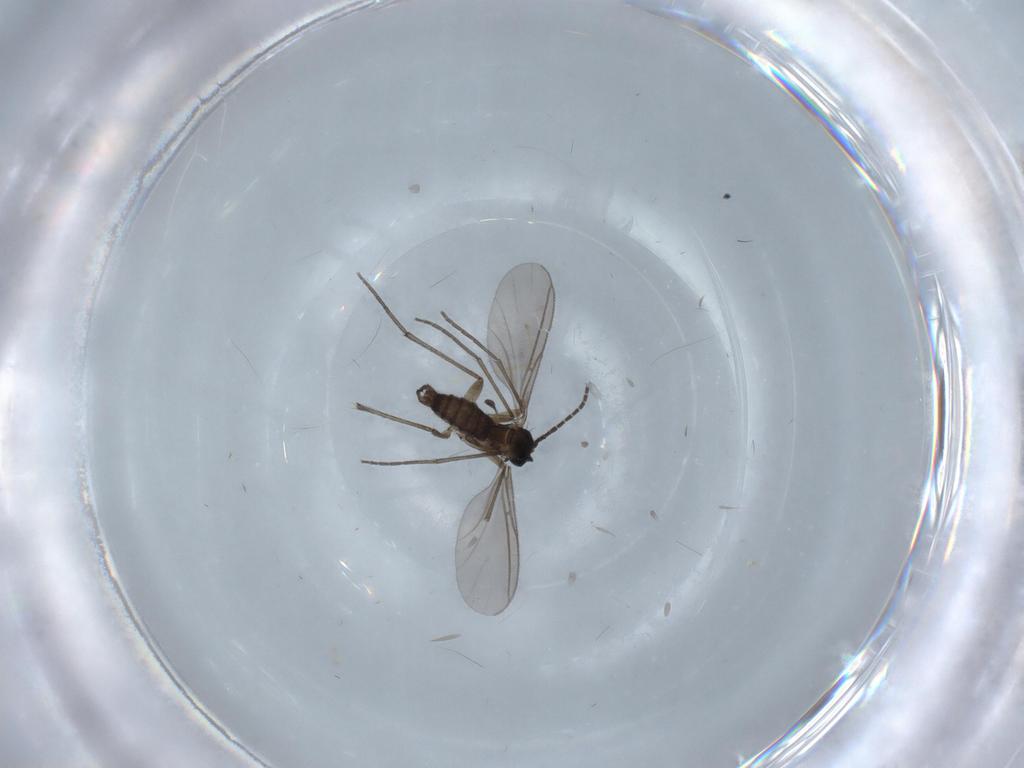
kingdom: Animalia
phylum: Arthropoda
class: Insecta
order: Diptera
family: Sciaridae
